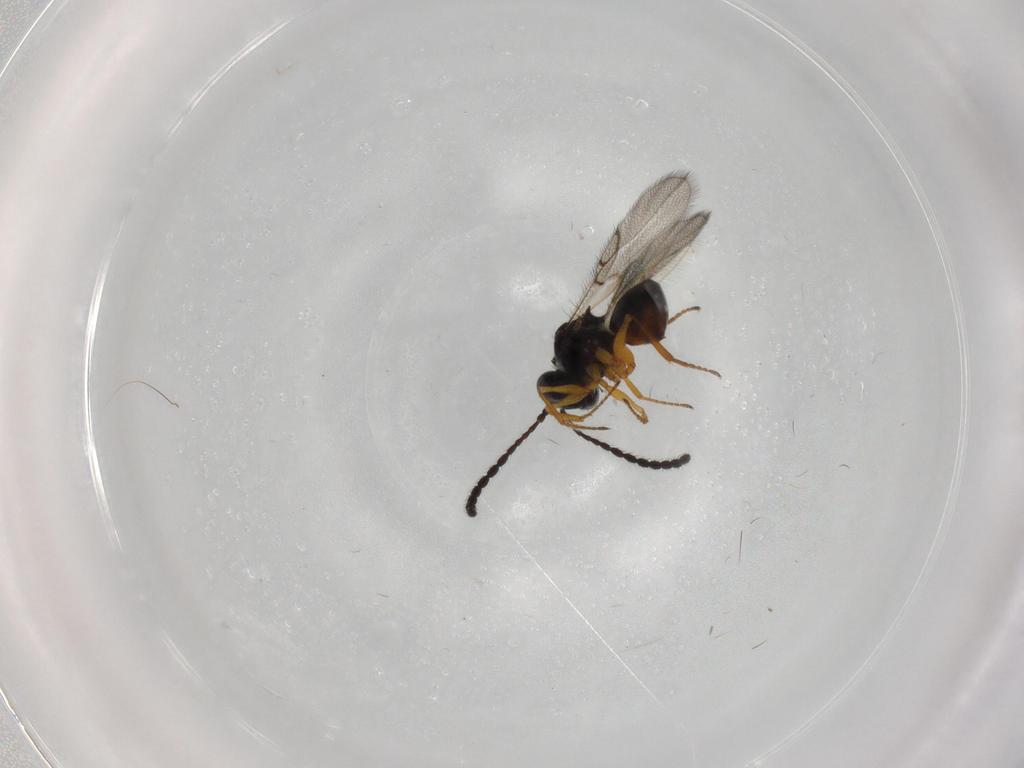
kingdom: Animalia
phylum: Arthropoda
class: Insecta
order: Hymenoptera
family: Figitidae
